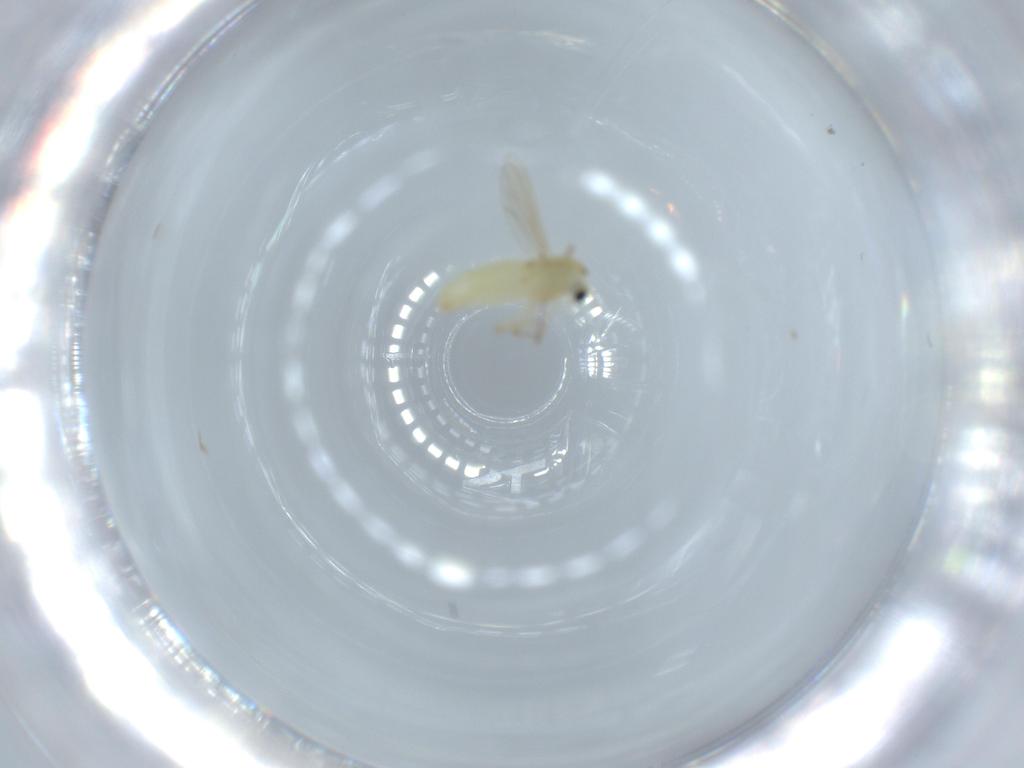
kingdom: Animalia
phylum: Arthropoda
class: Insecta
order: Diptera
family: Chironomidae
